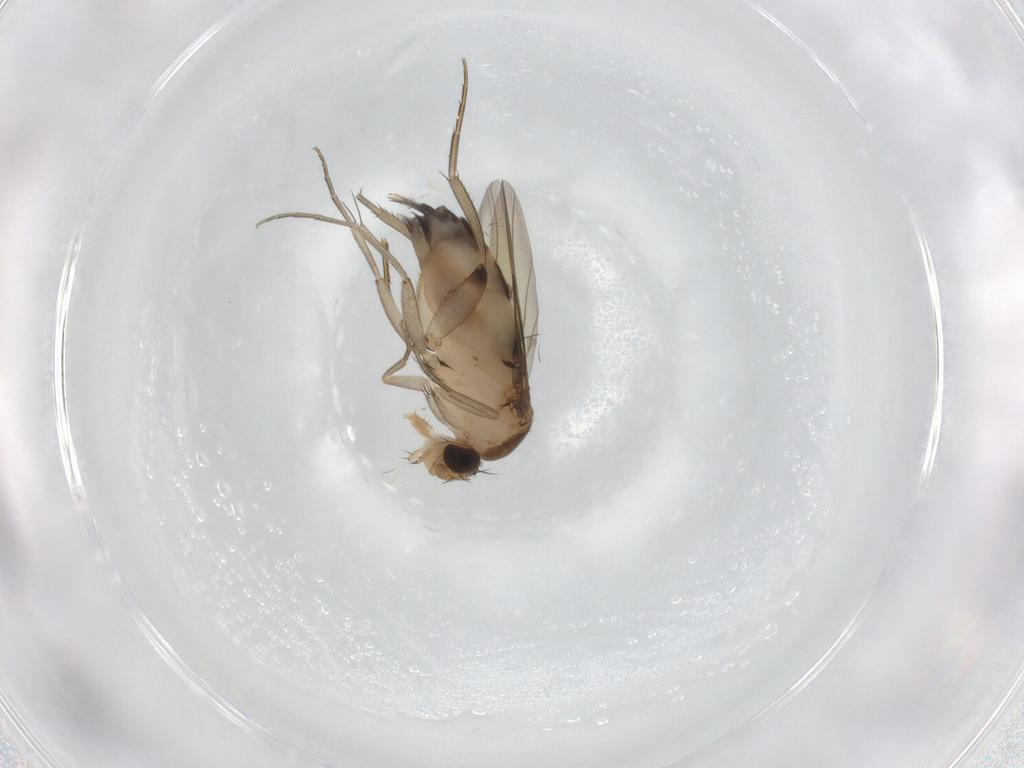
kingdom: Animalia
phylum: Arthropoda
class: Insecta
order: Diptera
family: Phoridae
